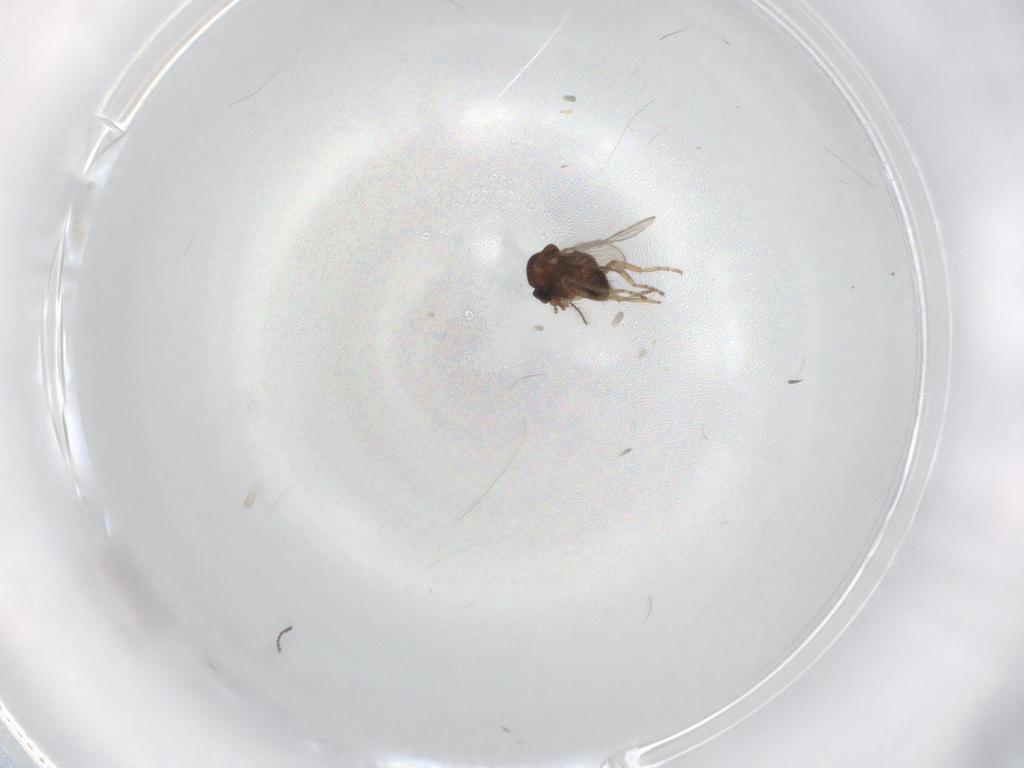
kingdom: Animalia
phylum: Arthropoda
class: Insecta
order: Diptera
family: Ceratopogonidae
